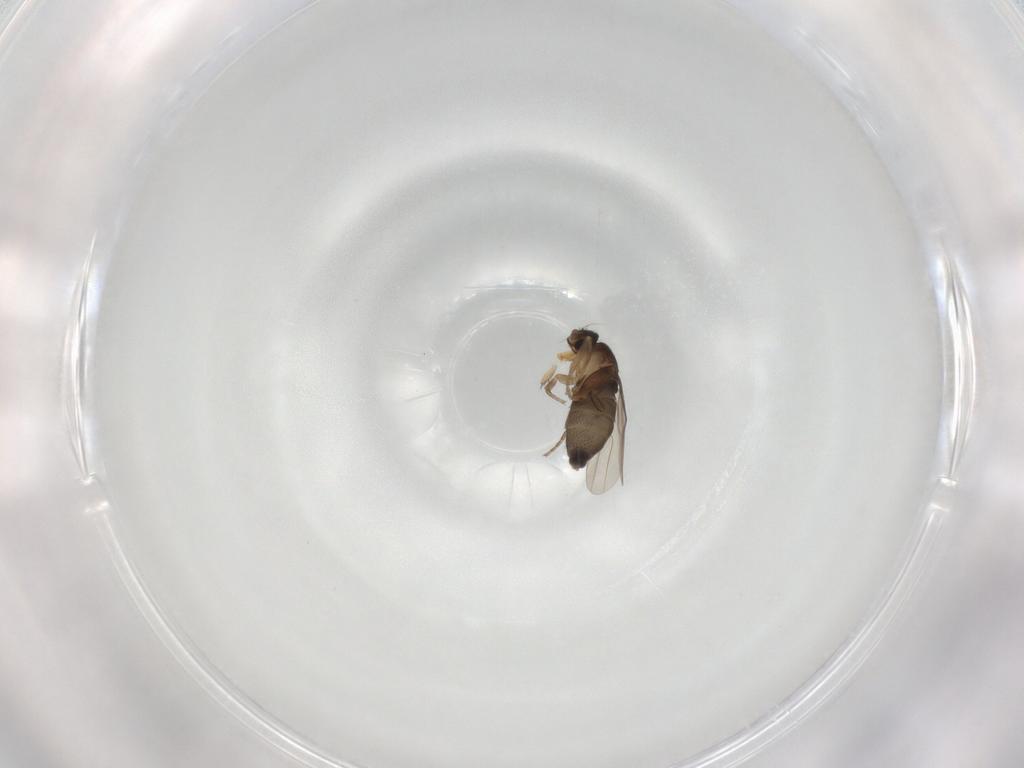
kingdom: Animalia
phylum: Arthropoda
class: Insecta
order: Diptera
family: Phoridae
